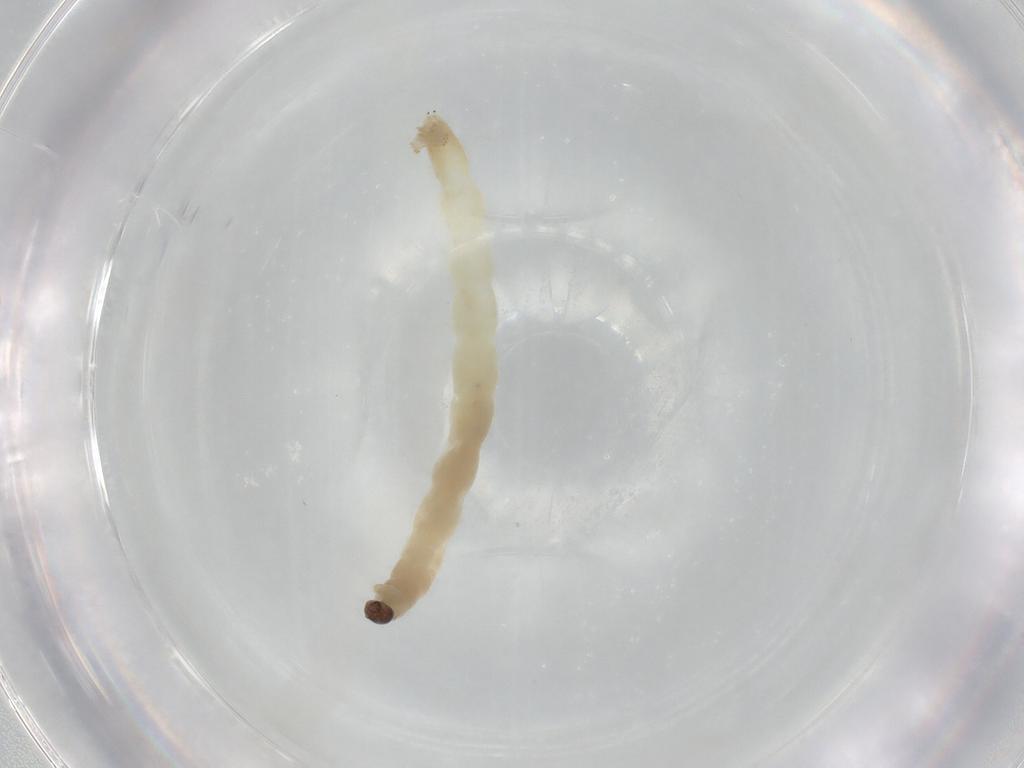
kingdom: Animalia
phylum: Arthropoda
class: Insecta
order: Diptera
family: Chironomidae
